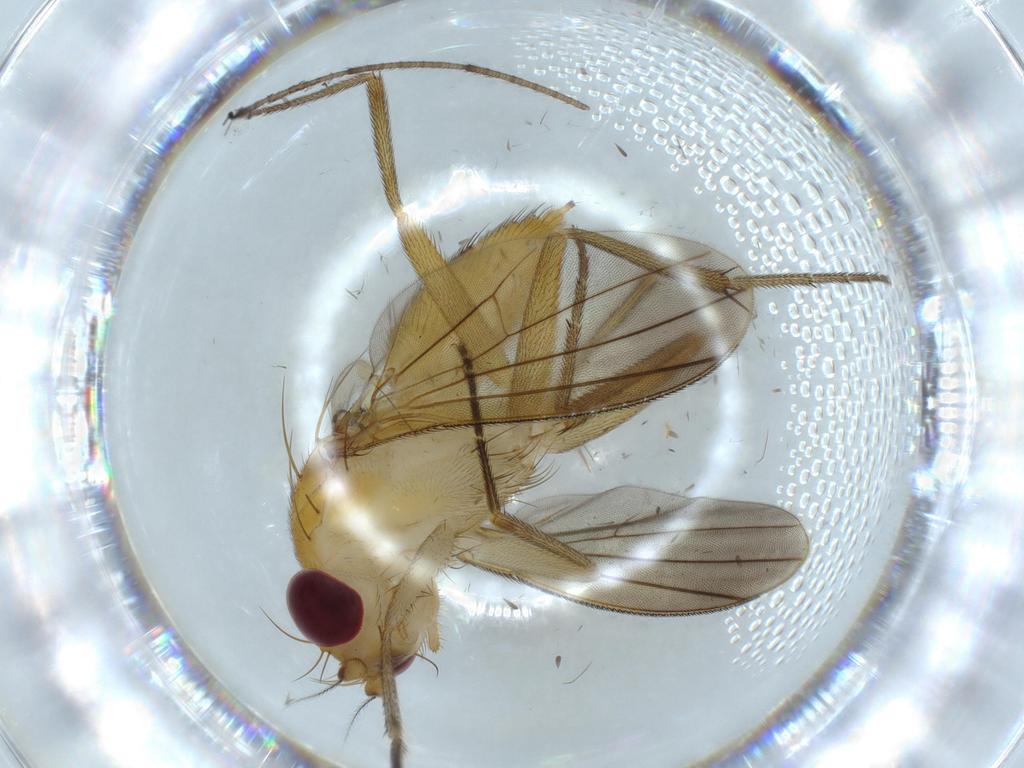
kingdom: Animalia
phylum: Arthropoda
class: Insecta
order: Diptera
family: Clusiidae
